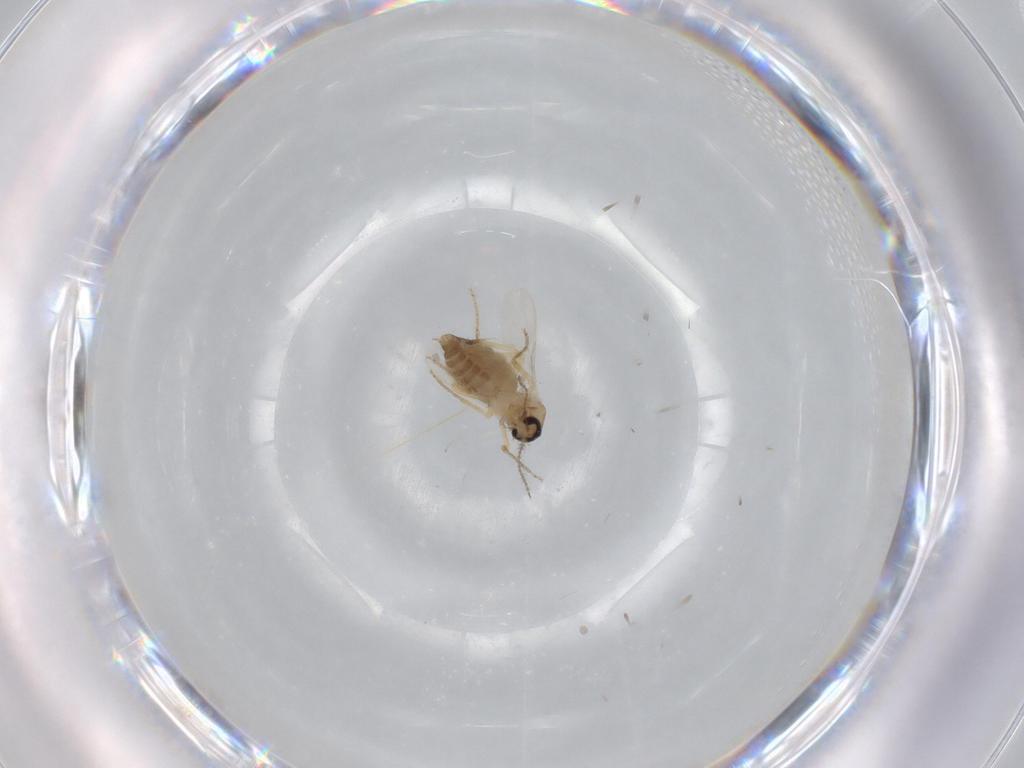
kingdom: Animalia
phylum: Arthropoda
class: Insecta
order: Diptera
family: Ceratopogonidae
